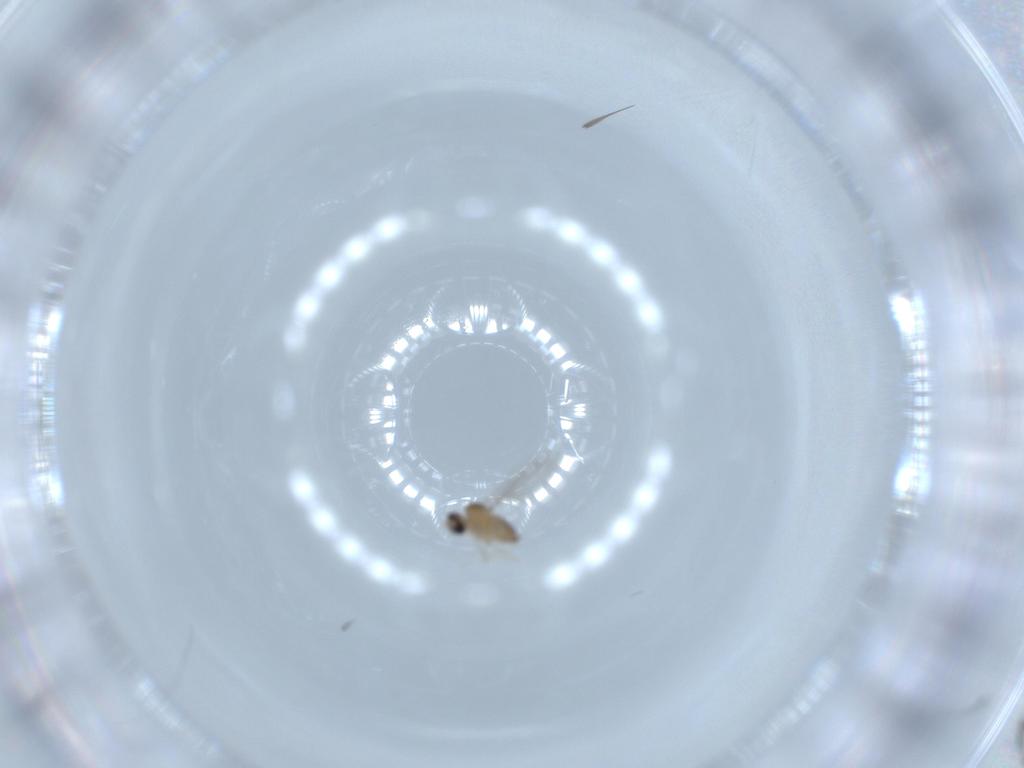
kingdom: Animalia
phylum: Arthropoda
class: Insecta
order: Diptera
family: Sciaridae
